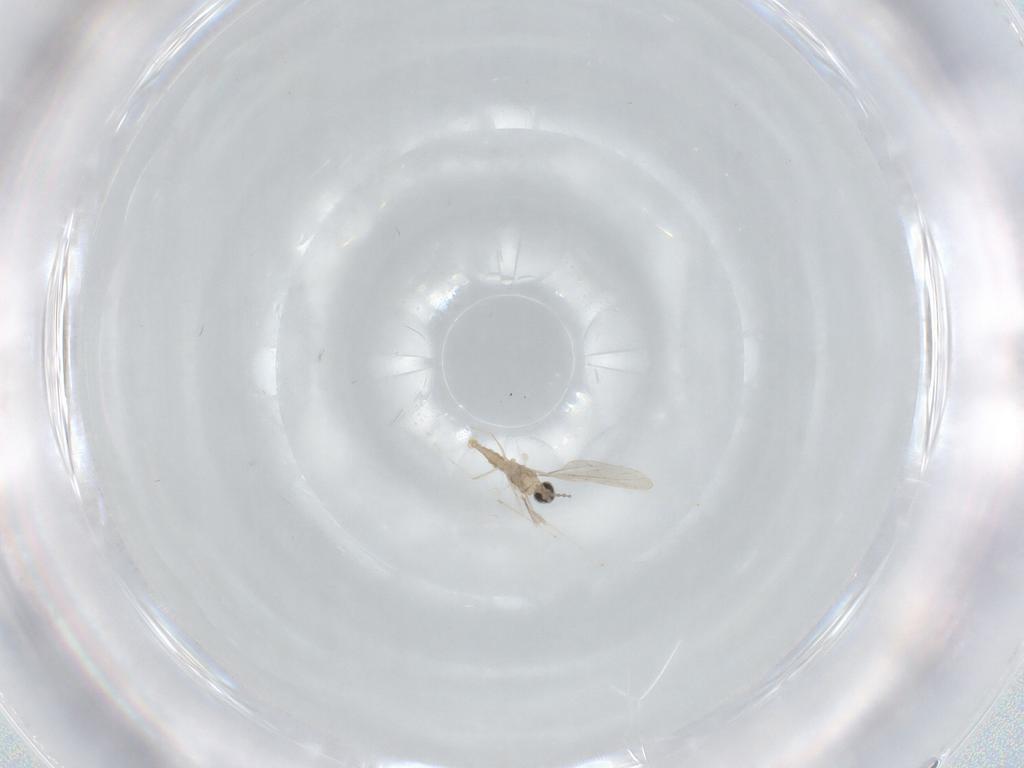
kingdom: Animalia
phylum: Arthropoda
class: Insecta
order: Diptera
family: Cecidomyiidae
